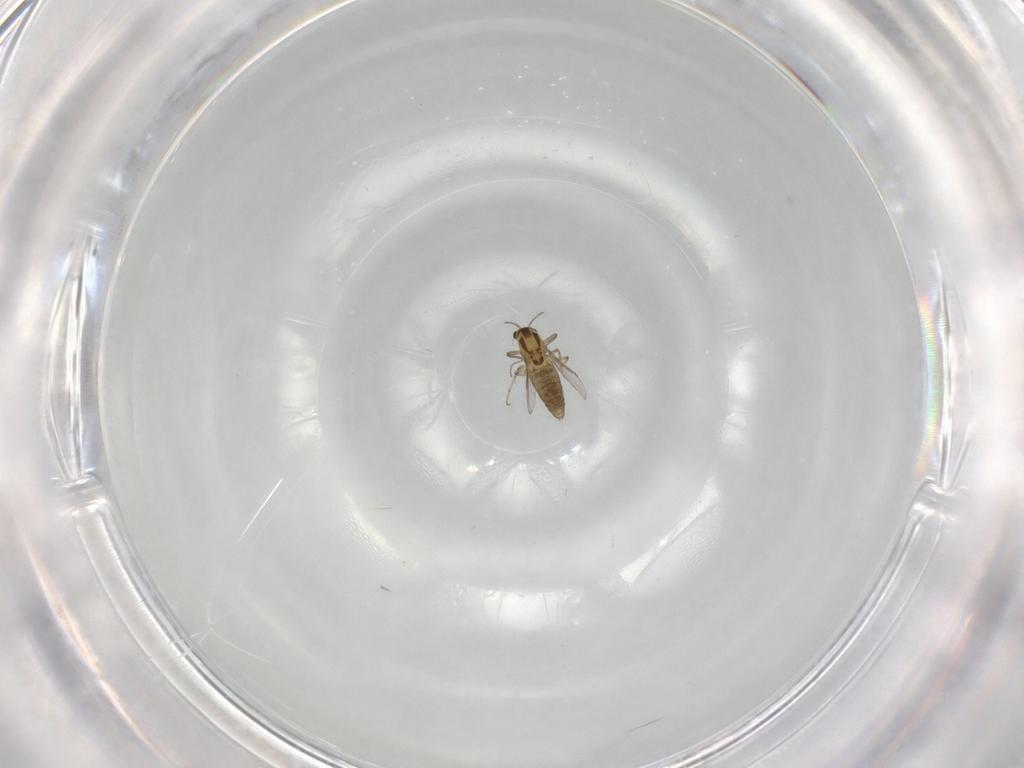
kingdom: Animalia
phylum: Arthropoda
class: Insecta
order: Diptera
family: Chironomidae
